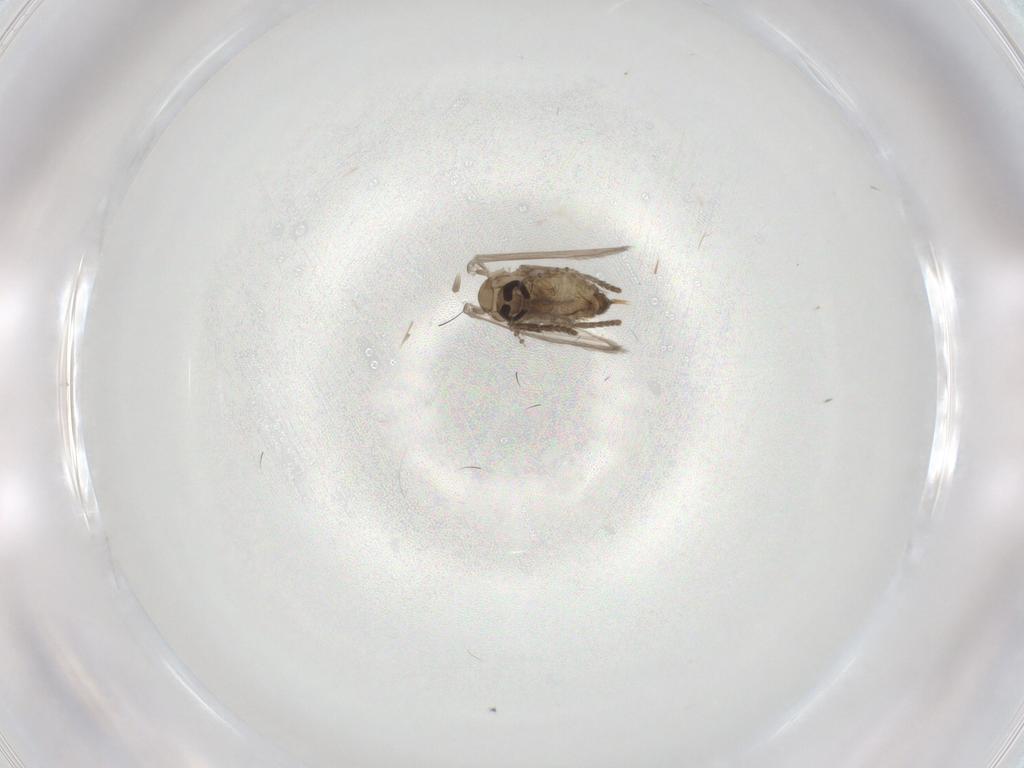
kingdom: Animalia
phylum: Arthropoda
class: Insecta
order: Diptera
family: Psychodidae
